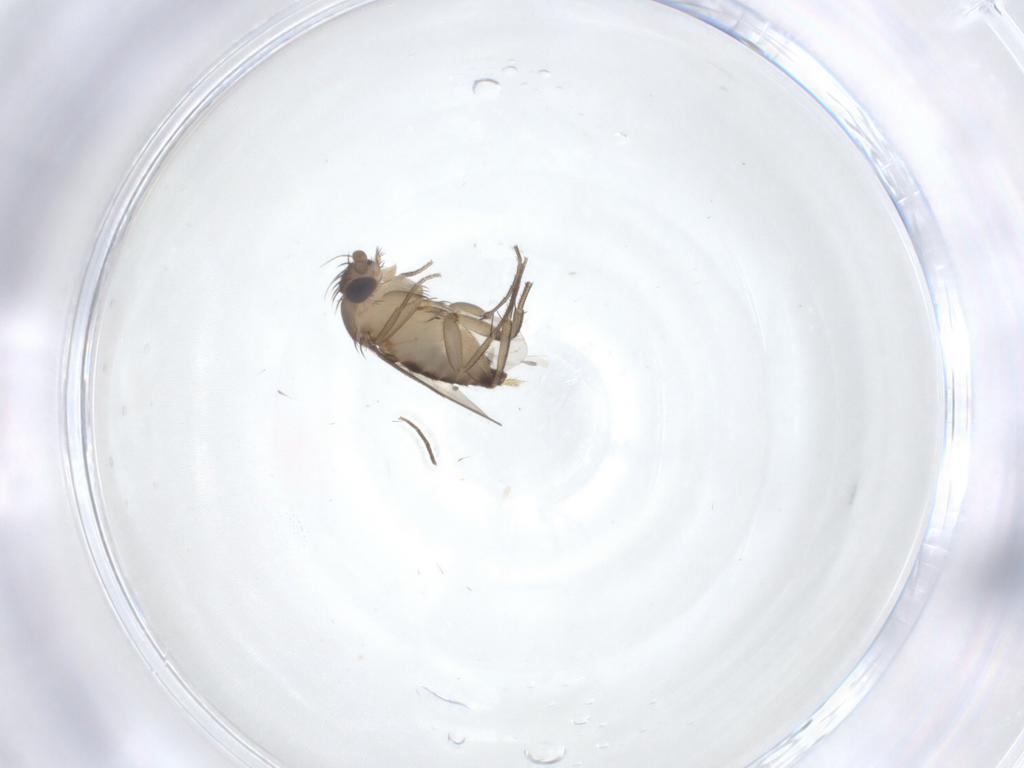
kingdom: Animalia
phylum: Arthropoda
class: Insecta
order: Diptera
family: Phoridae
